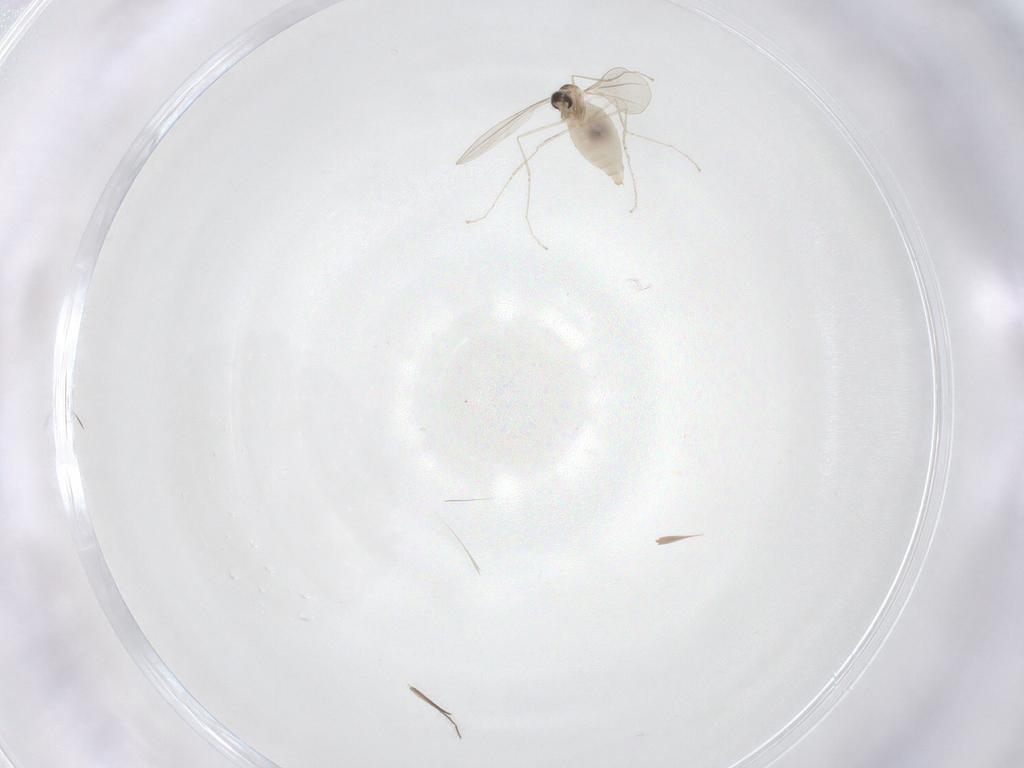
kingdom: Animalia
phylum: Arthropoda
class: Insecta
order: Diptera
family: Cecidomyiidae
